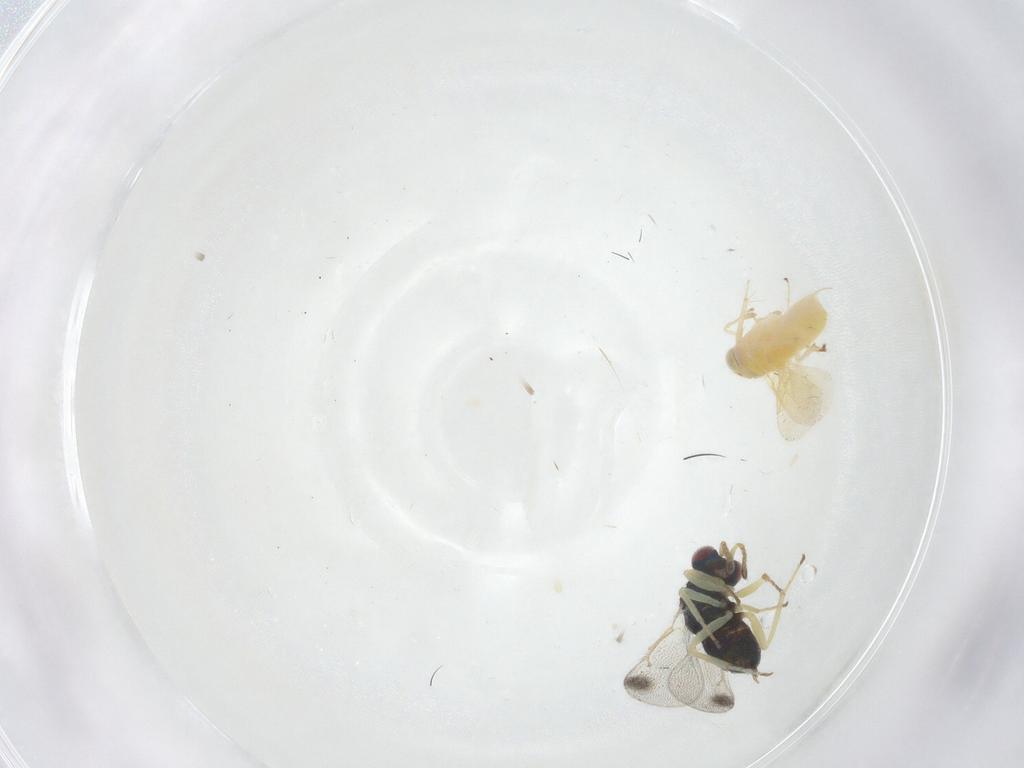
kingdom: Animalia
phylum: Arthropoda
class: Insecta
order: Hymenoptera
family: Eulophidae
